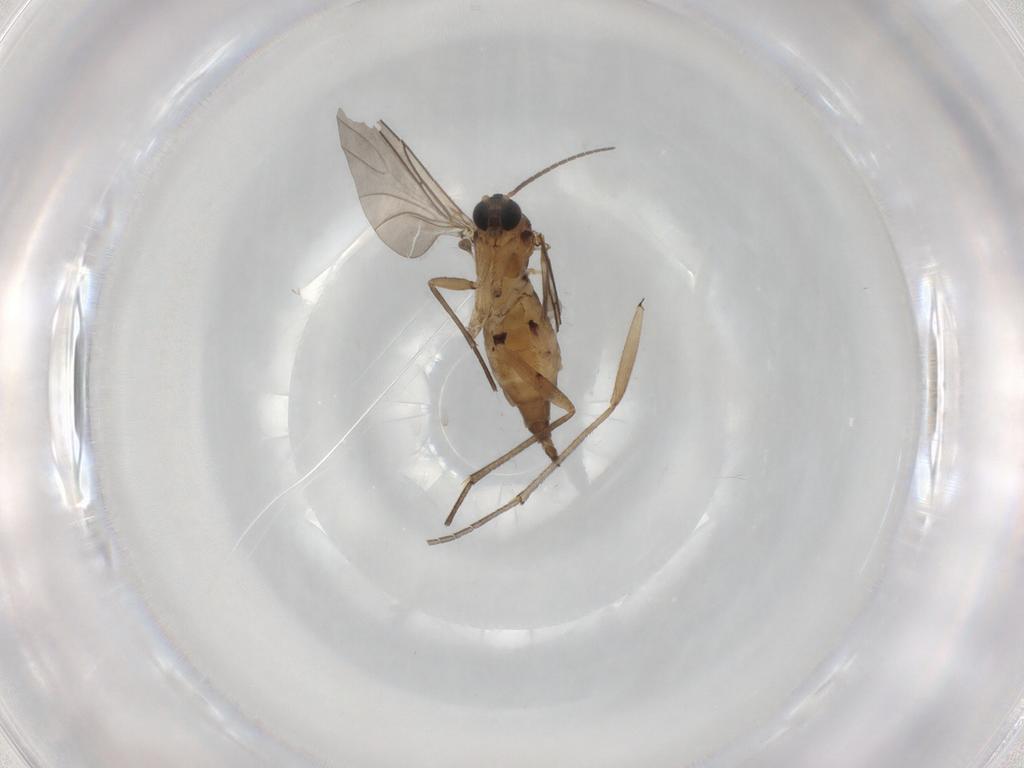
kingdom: Animalia
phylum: Arthropoda
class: Insecta
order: Diptera
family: Sciaridae
